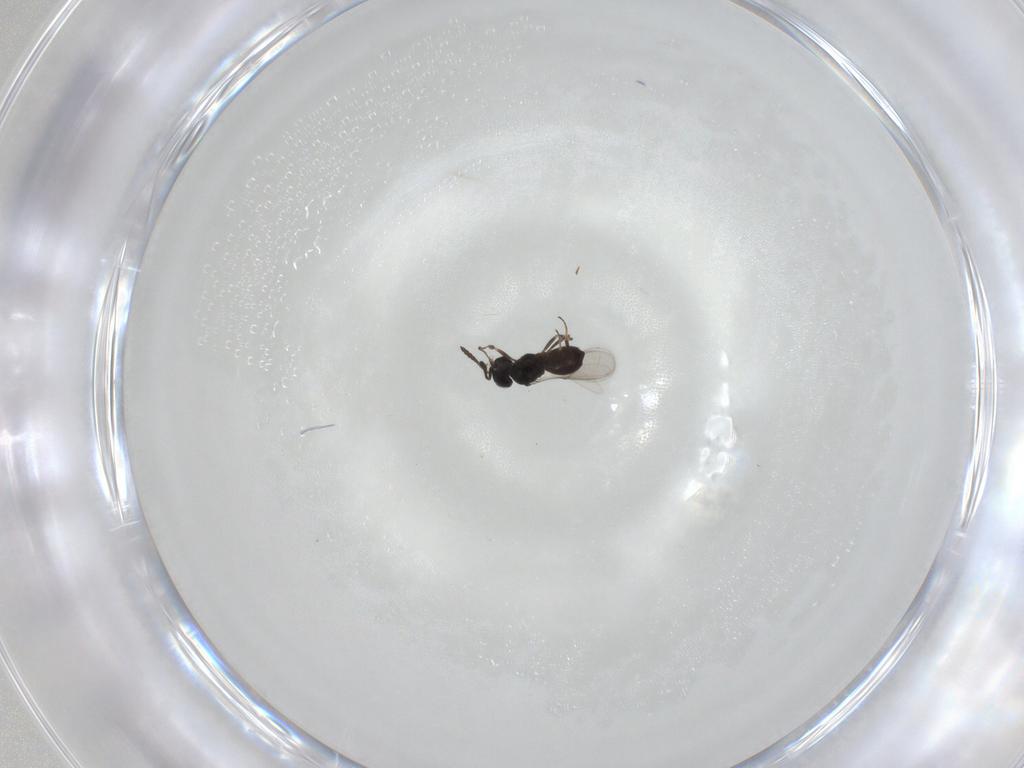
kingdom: Animalia
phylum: Arthropoda
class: Insecta
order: Hymenoptera
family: Scelionidae
